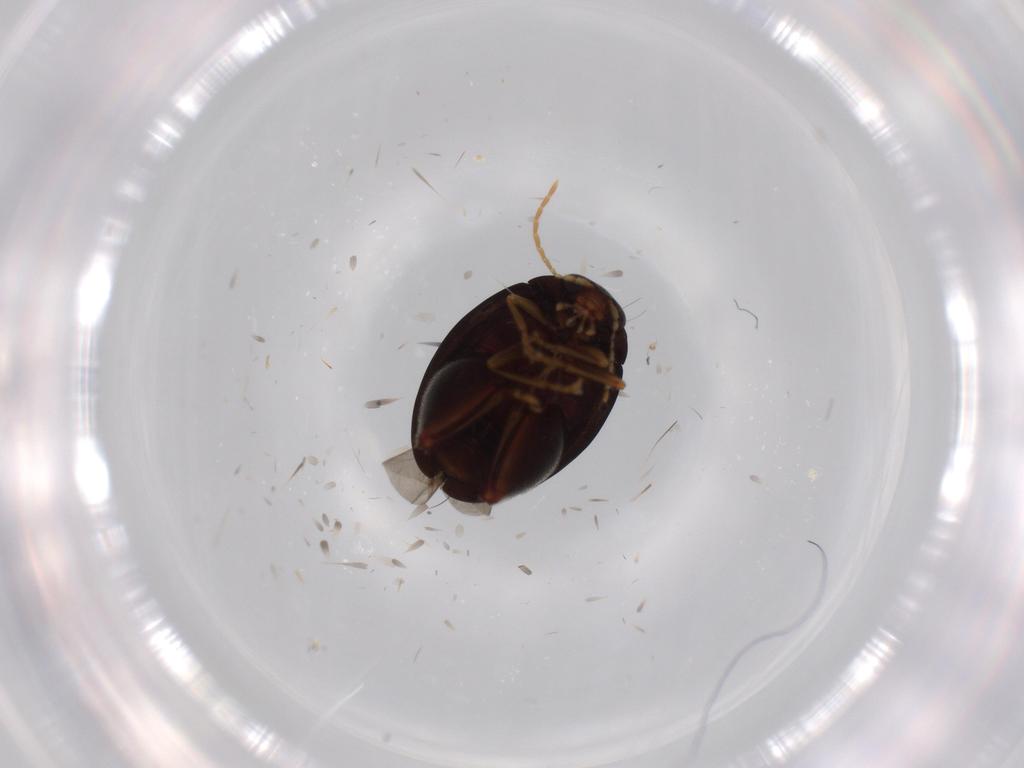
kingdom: Animalia
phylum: Arthropoda
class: Insecta
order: Coleoptera
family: Chrysomelidae
